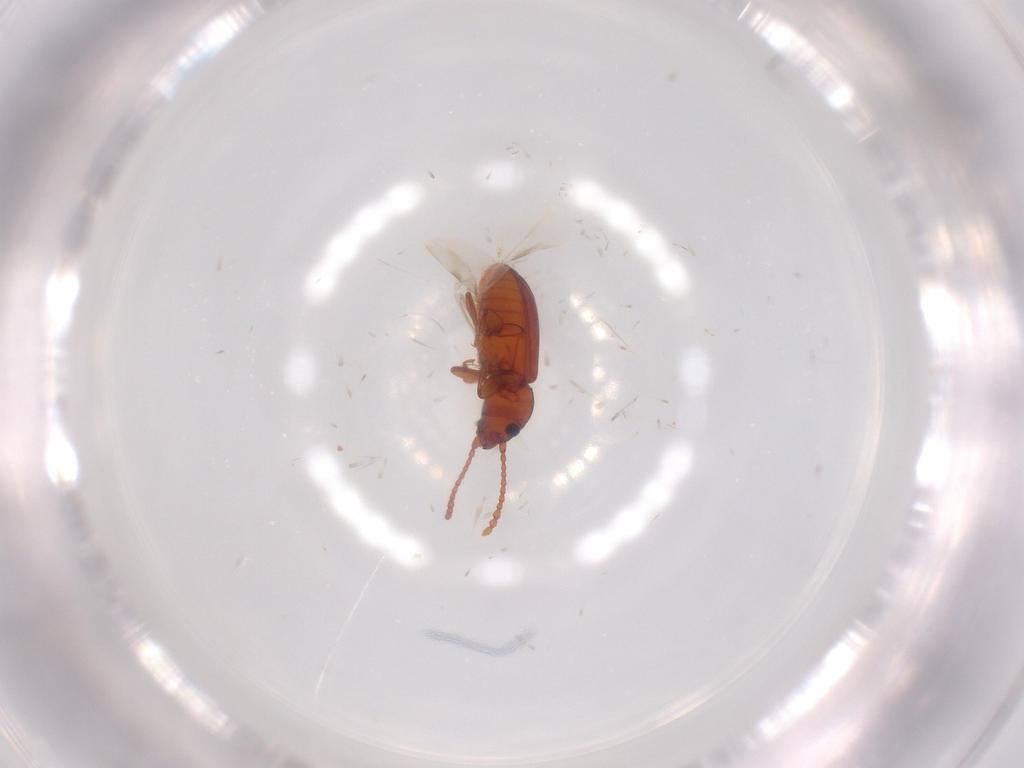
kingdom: Animalia
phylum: Arthropoda
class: Insecta
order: Coleoptera
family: Laemophloeidae
